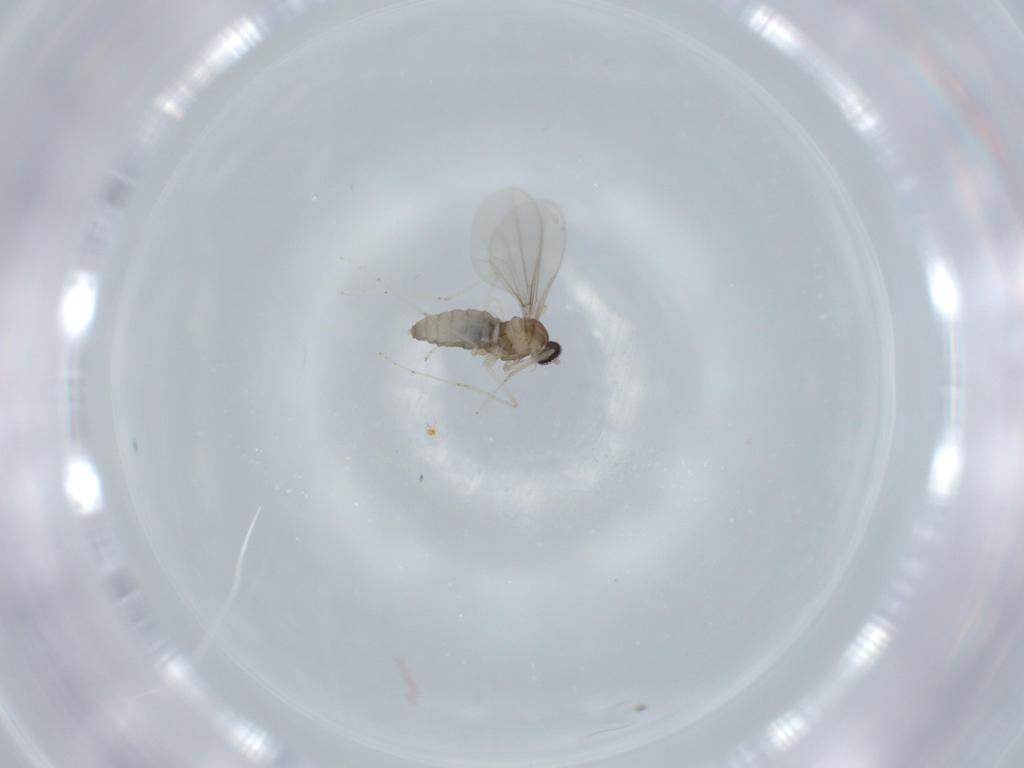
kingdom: Animalia
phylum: Arthropoda
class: Insecta
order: Diptera
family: Cecidomyiidae
